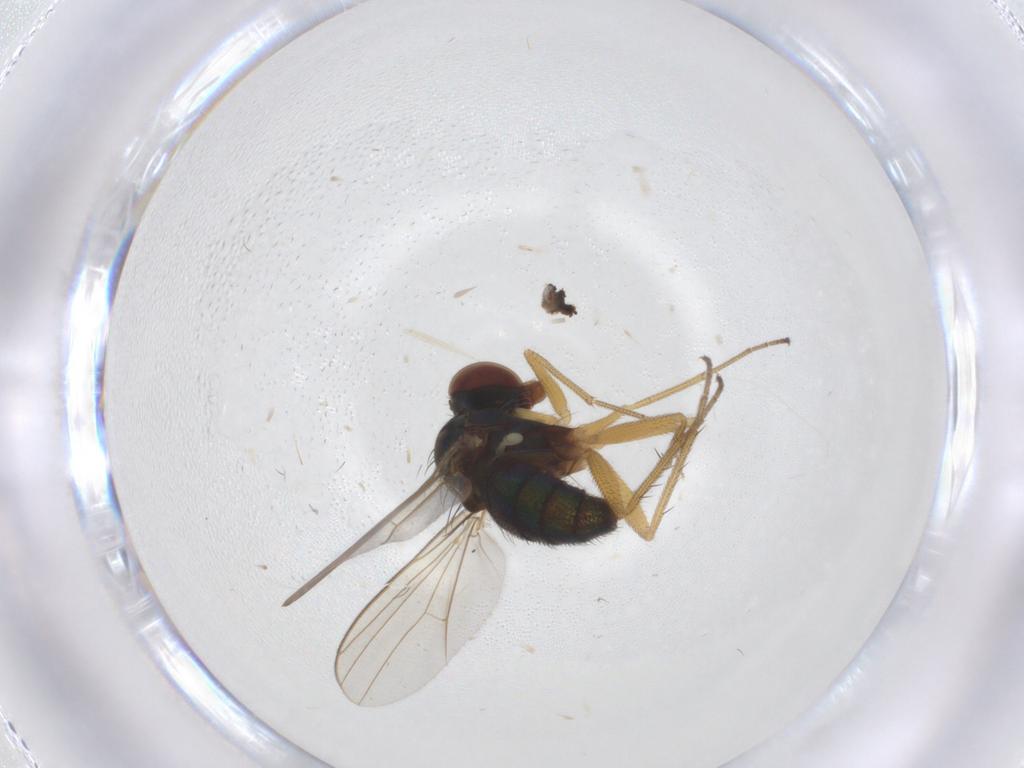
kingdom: Animalia
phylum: Arthropoda
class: Insecta
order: Diptera
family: Dolichopodidae
